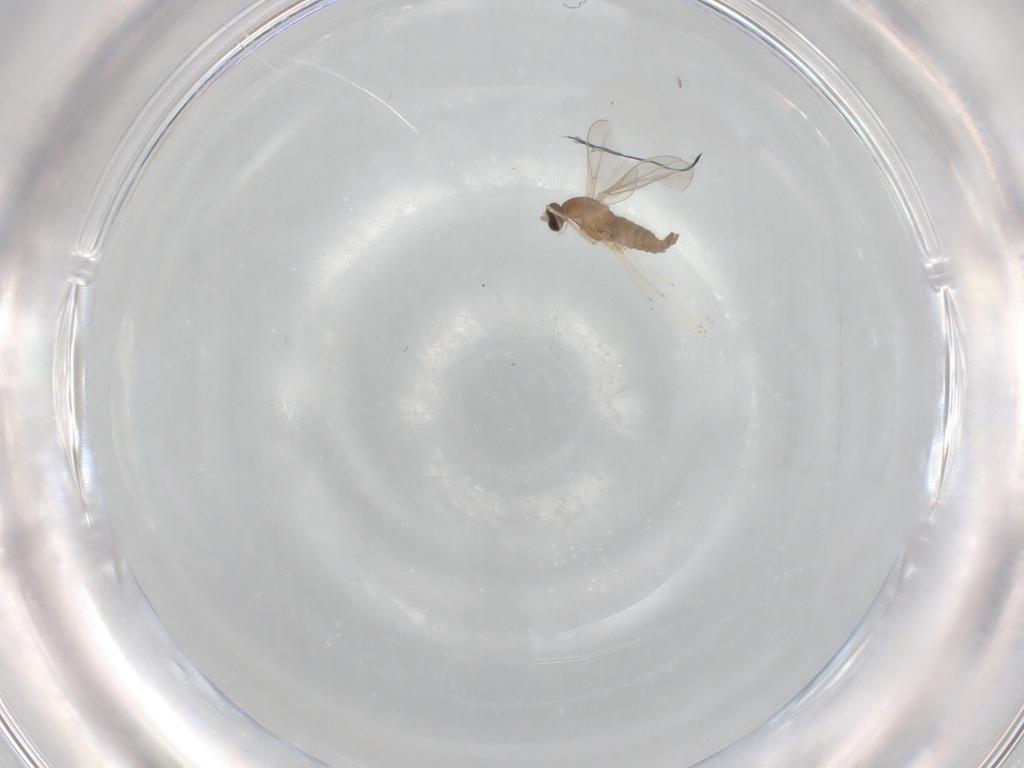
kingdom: Animalia
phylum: Arthropoda
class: Insecta
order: Diptera
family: Cecidomyiidae
